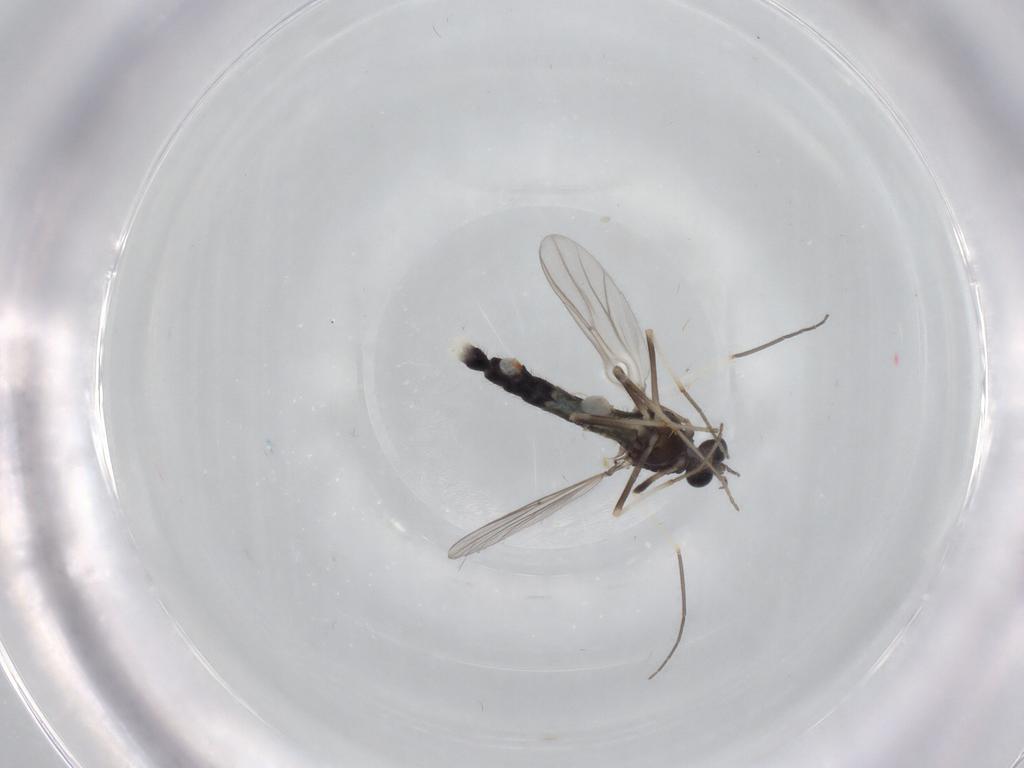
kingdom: Animalia
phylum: Arthropoda
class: Insecta
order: Diptera
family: Chironomidae
